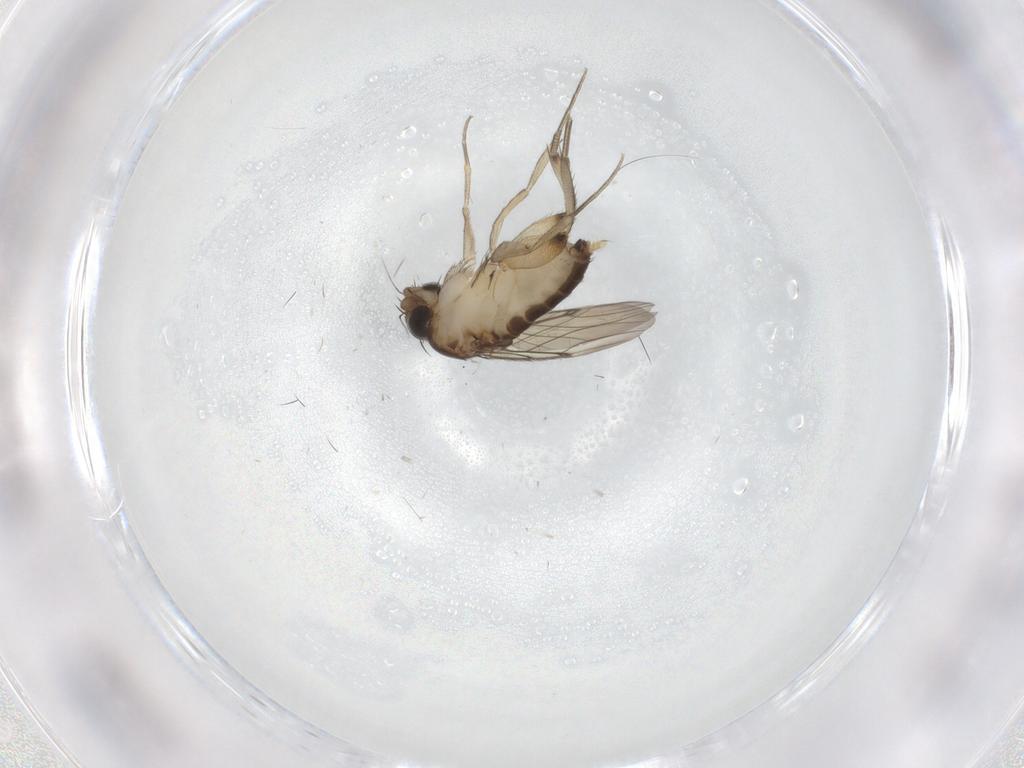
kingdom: Animalia
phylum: Arthropoda
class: Insecta
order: Diptera
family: Phoridae
